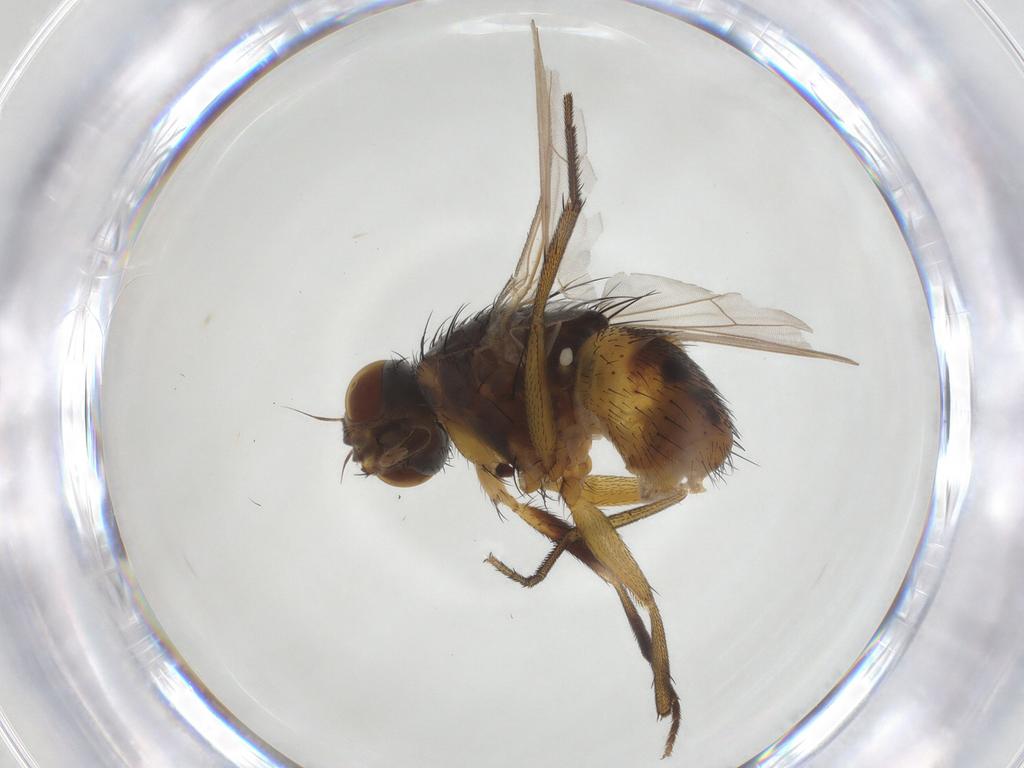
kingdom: Animalia
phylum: Arthropoda
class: Insecta
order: Diptera
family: Muscidae
